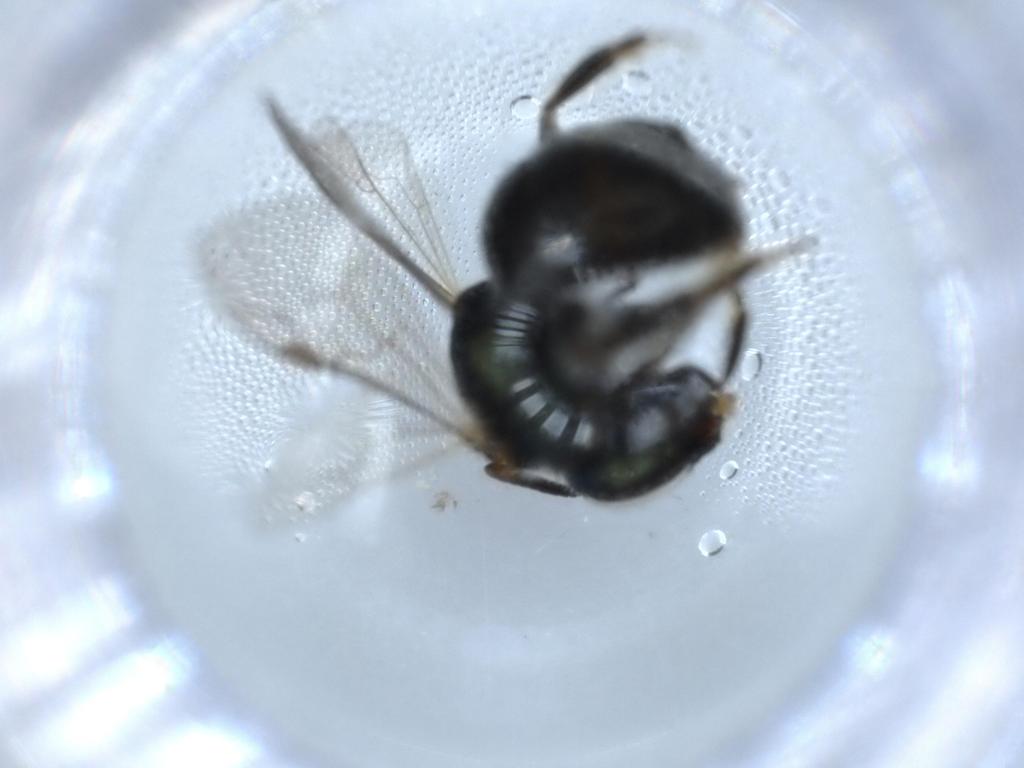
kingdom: Animalia
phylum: Arthropoda
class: Insecta
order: Hymenoptera
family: Halictidae
